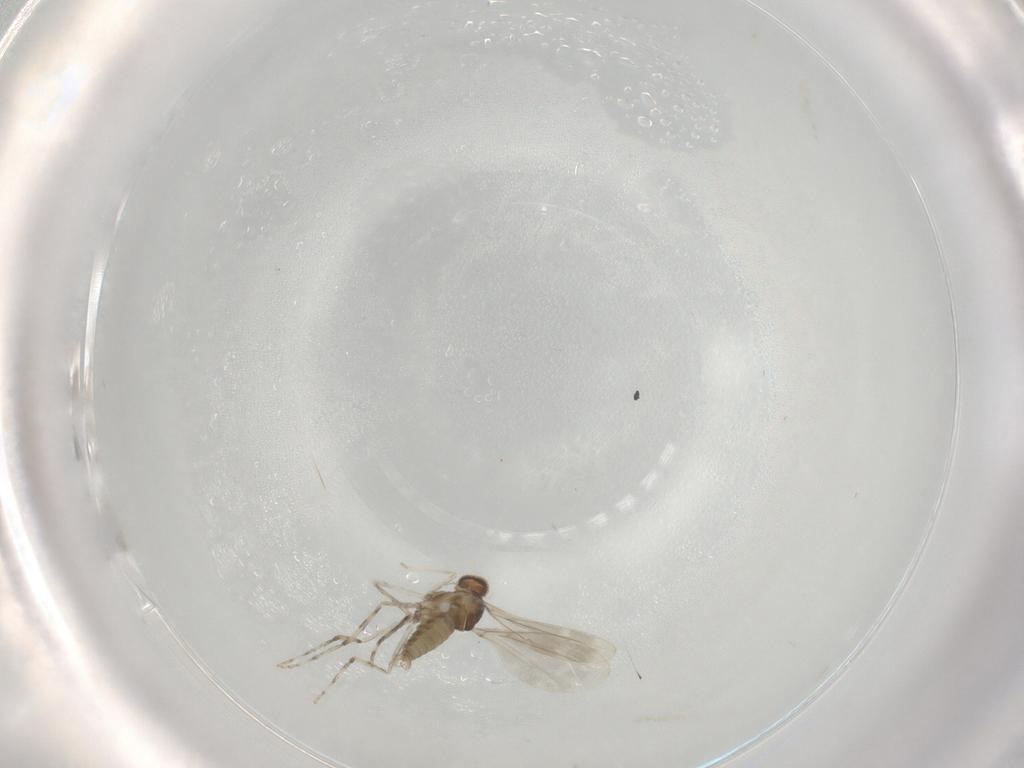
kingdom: Animalia
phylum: Arthropoda
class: Insecta
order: Diptera
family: Cecidomyiidae
